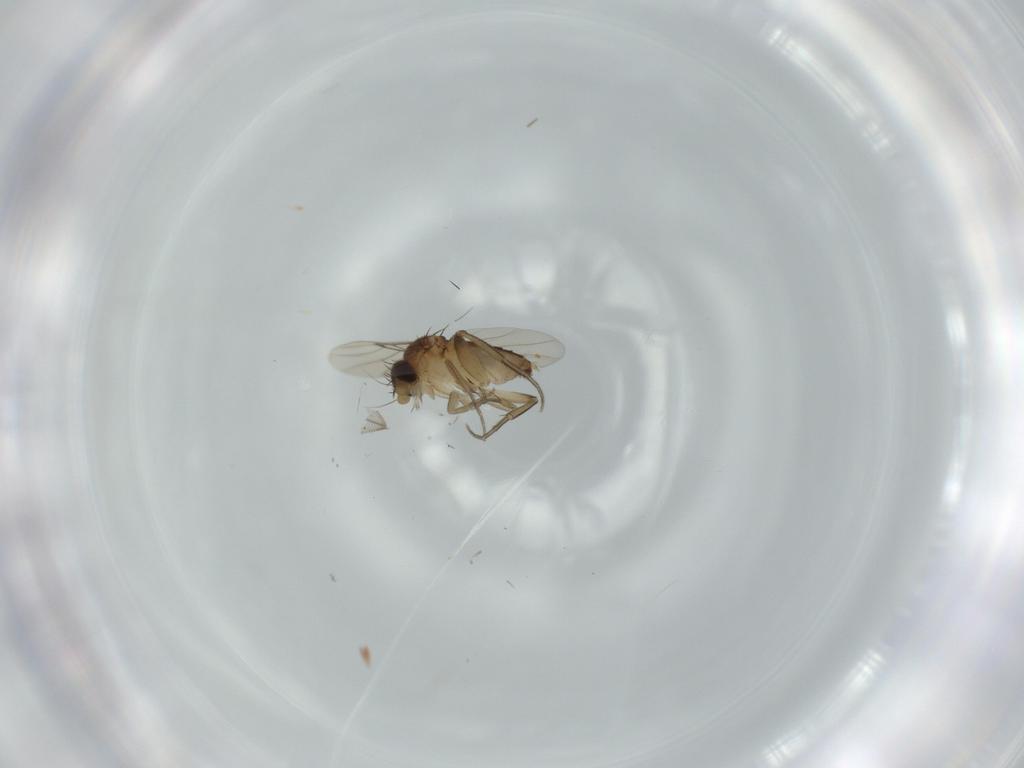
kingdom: Animalia
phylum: Arthropoda
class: Insecta
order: Diptera
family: Phoridae
